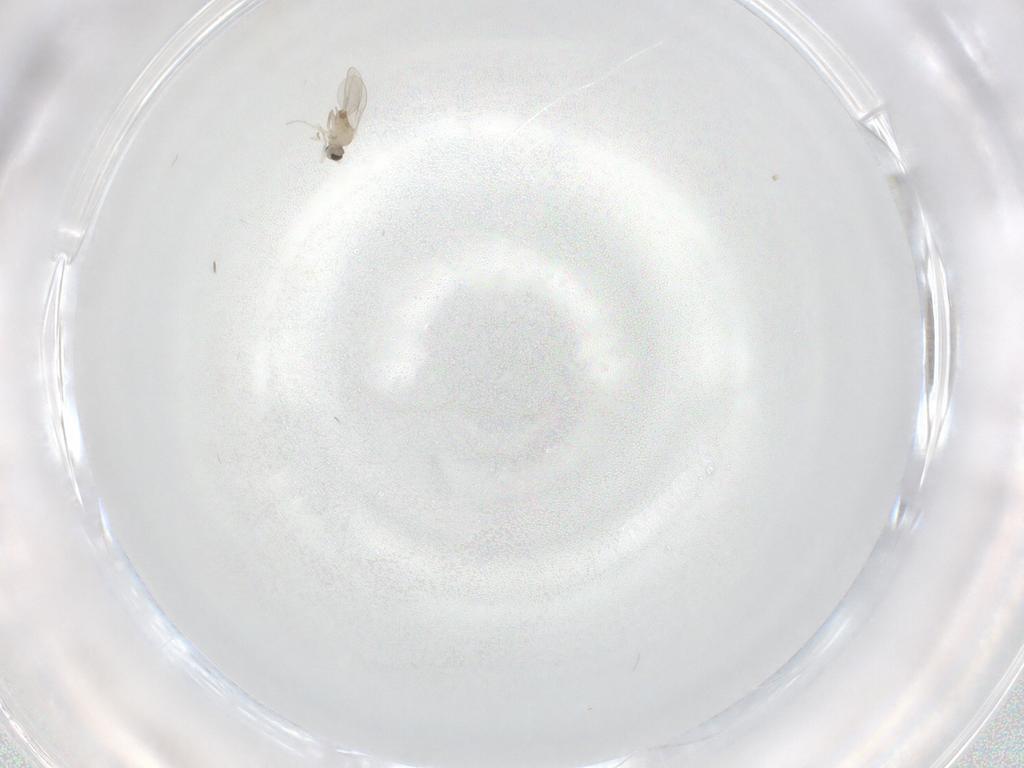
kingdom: Animalia
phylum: Arthropoda
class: Insecta
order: Diptera
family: Cecidomyiidae
